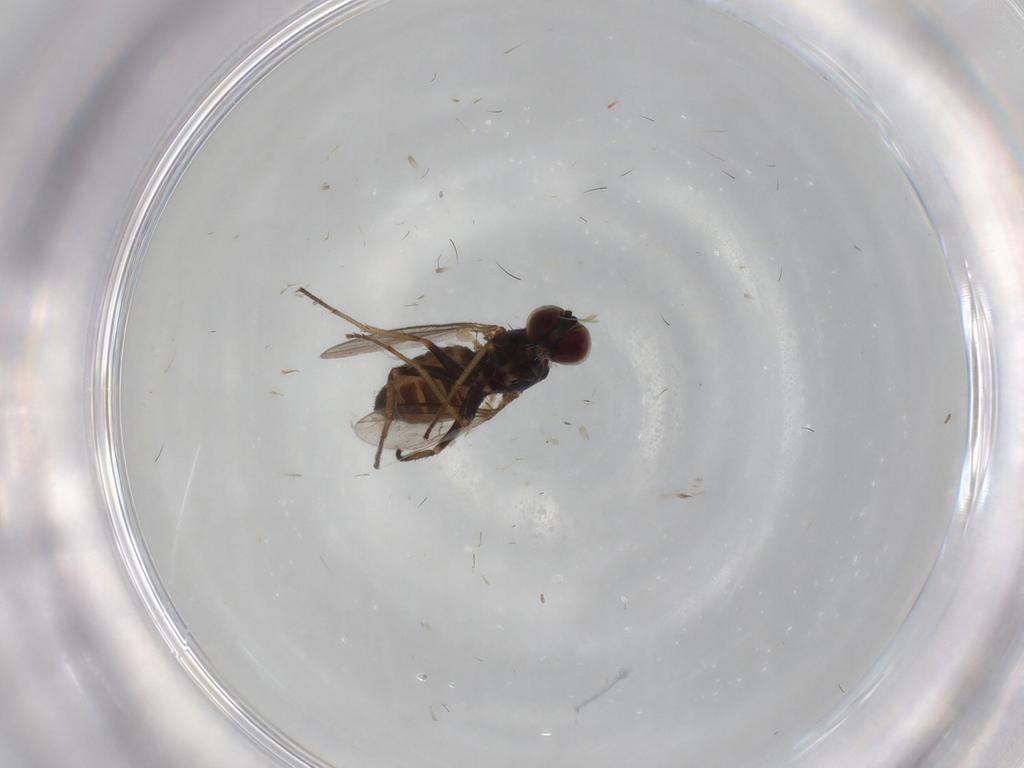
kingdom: Animalia
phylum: Arthropoda
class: Insecta
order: Diptera
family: Dolichopodidae
